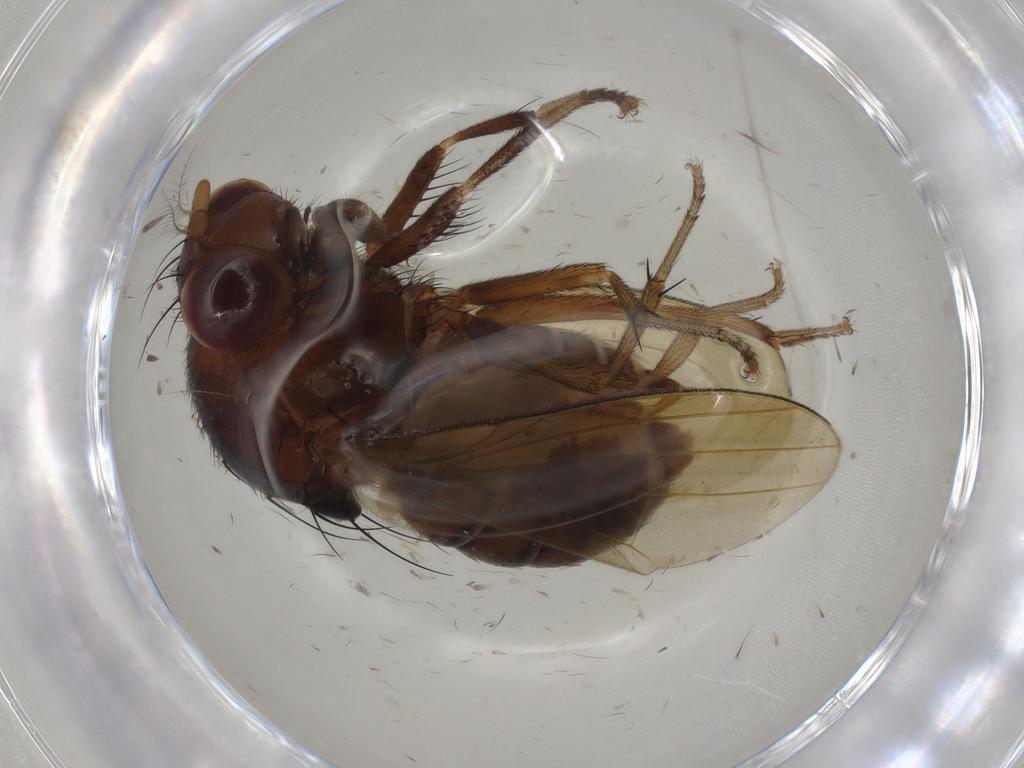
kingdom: Animalia
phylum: Arthropoda
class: Insecta
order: Diptera
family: Sciaridae
